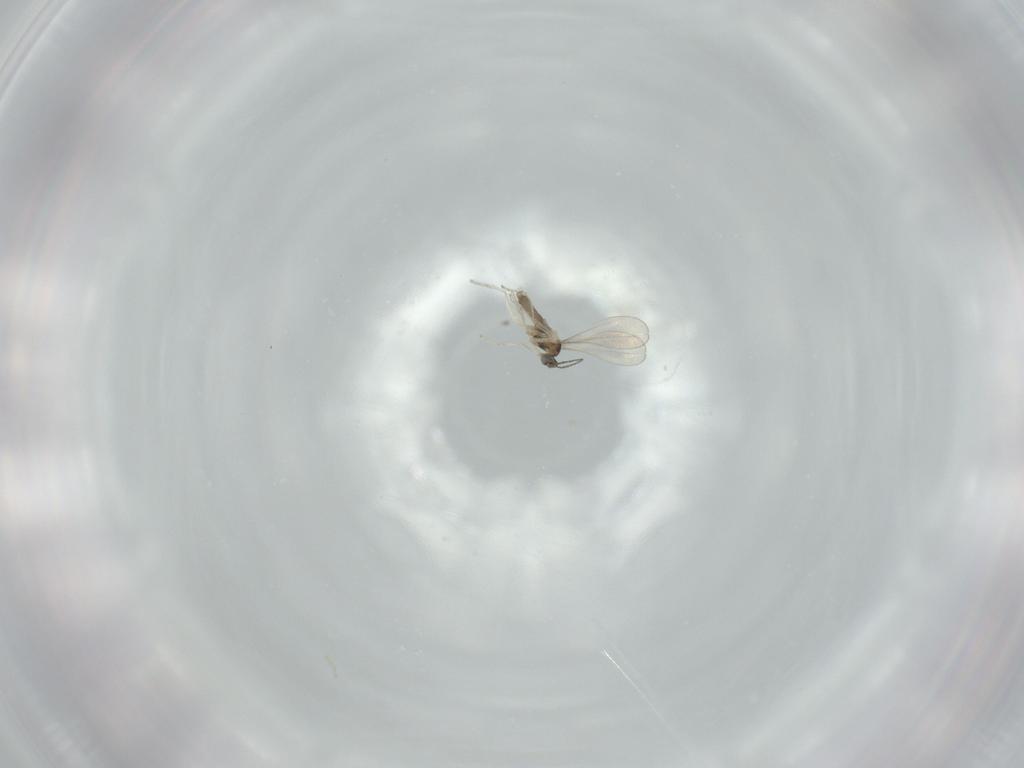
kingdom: Animalia
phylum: Arthropoda
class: Insecta
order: Diptera
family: Cecidomyiidae
